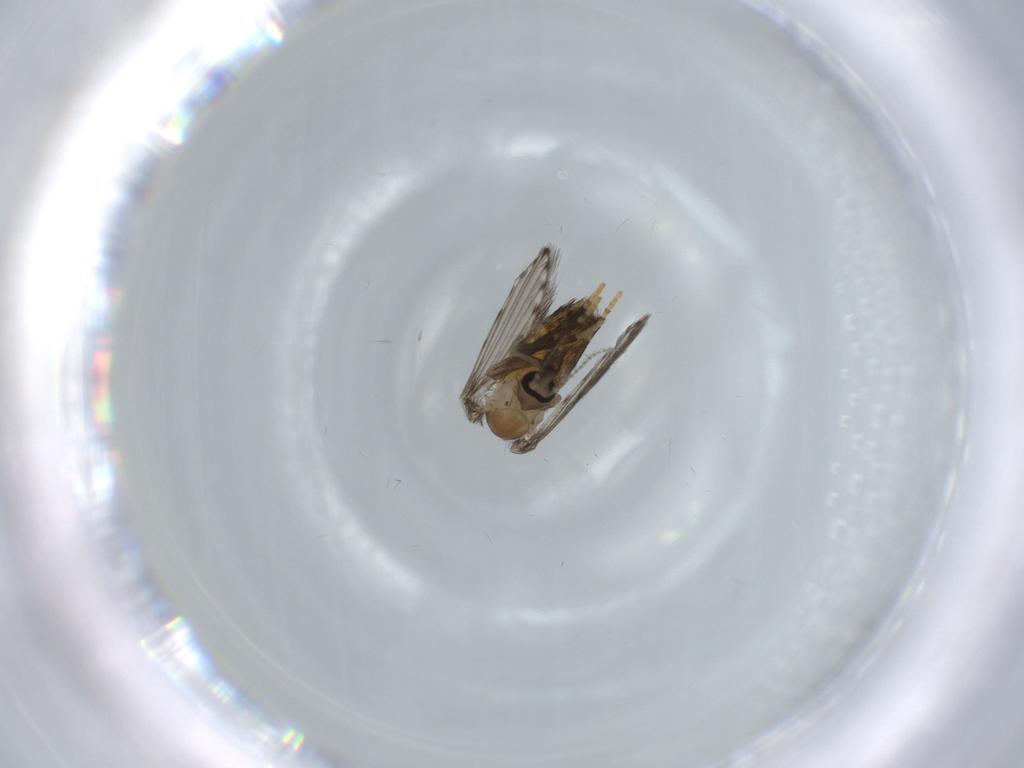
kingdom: Animalia
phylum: Arthropoda
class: Insecta
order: Diptera
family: Psychodidae
